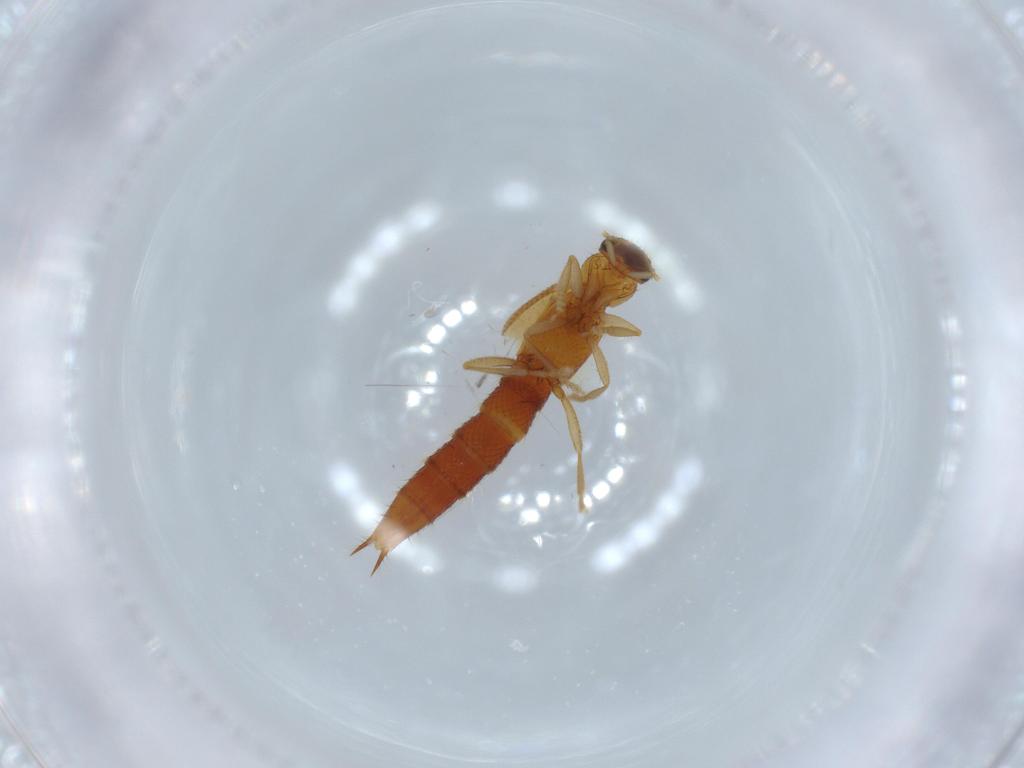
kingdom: Animalia
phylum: Arthropoda
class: Insecta
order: Coleoptera
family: Staphylinidae
